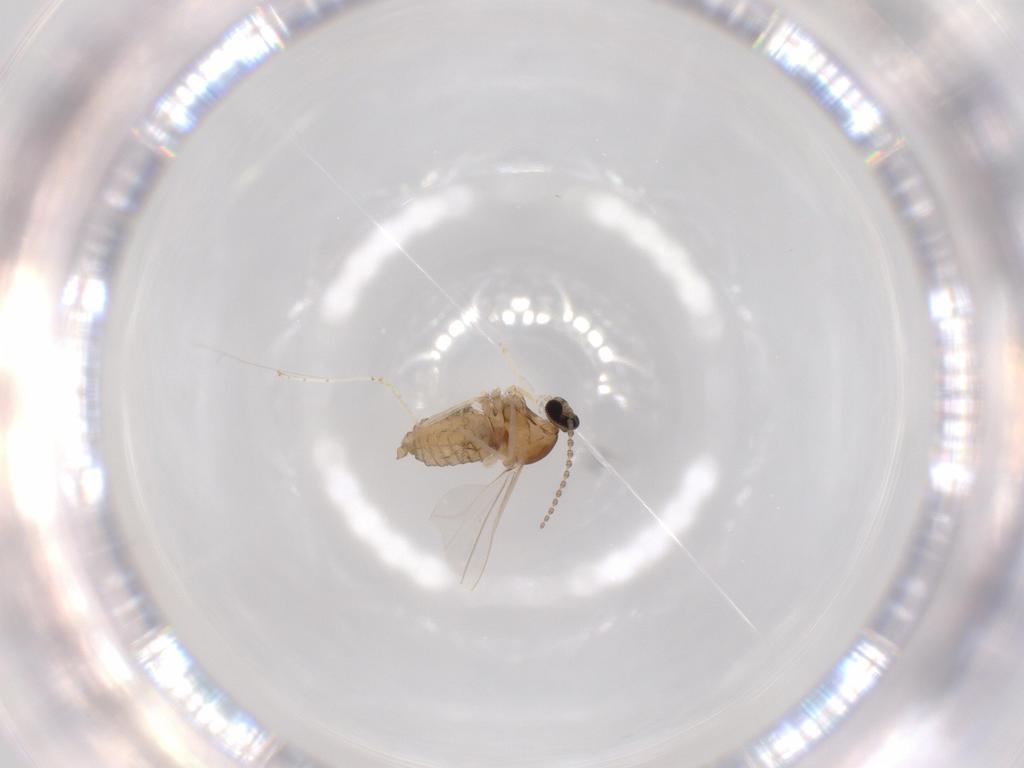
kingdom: Animalia
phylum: Arthropoda
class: Insecta
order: Diptera
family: Cecidomyiidae
